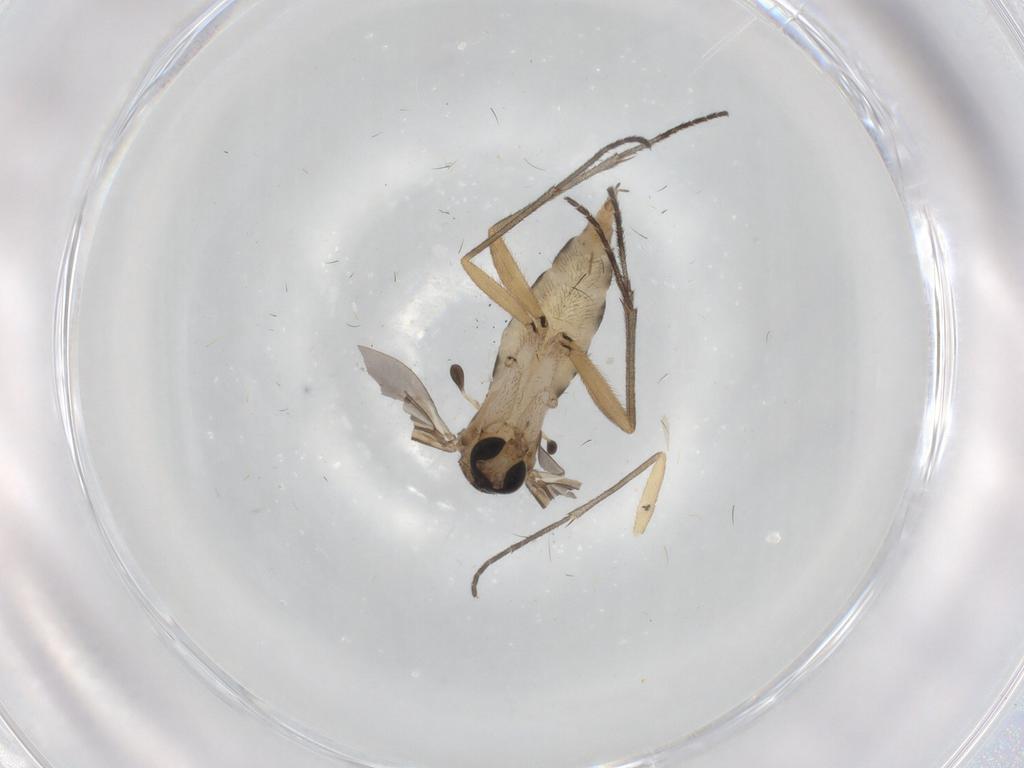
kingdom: Animalia
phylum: Arthropoda
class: Insecta
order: Diptera
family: Sciaridae
